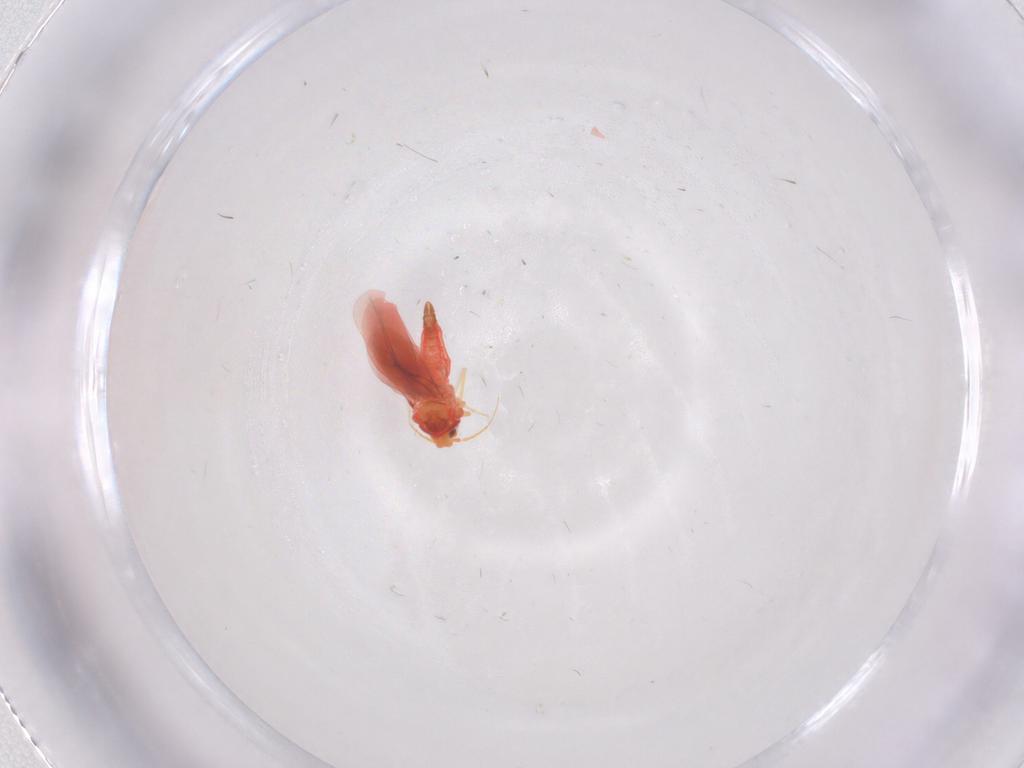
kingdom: Animalia
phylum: Arthropoda
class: Insecta
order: Hemiptera
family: Aleyrodidae
